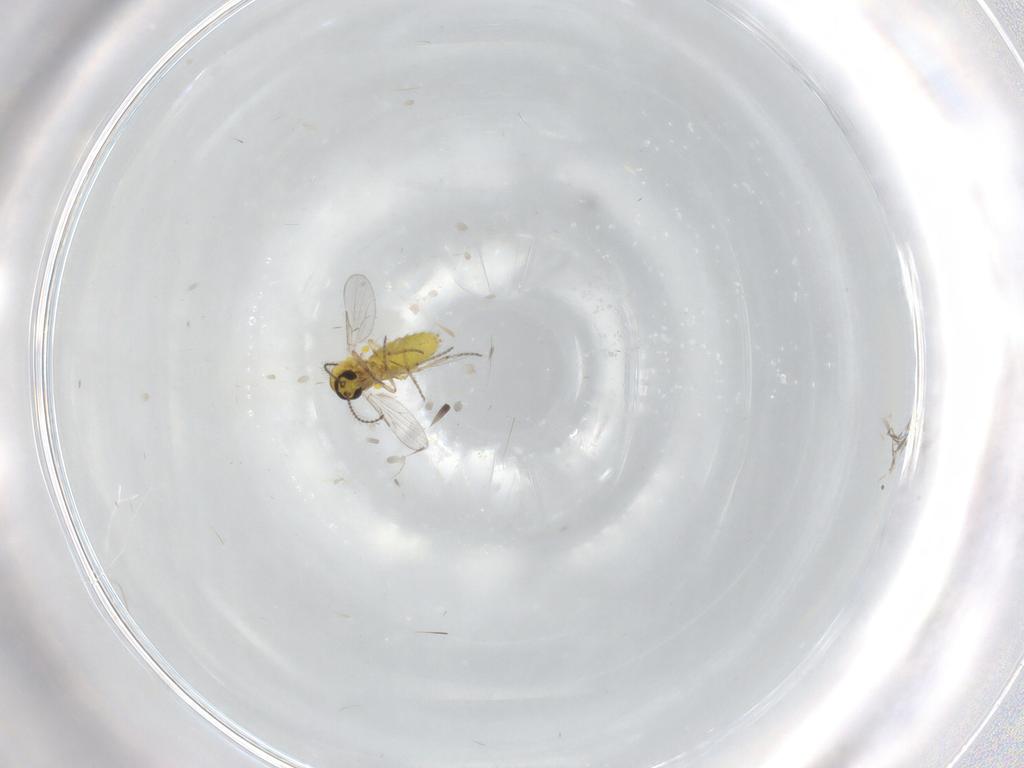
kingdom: Animalia
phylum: Arthropoda
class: Insecta
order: Diptera
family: Ceratopogonidae
